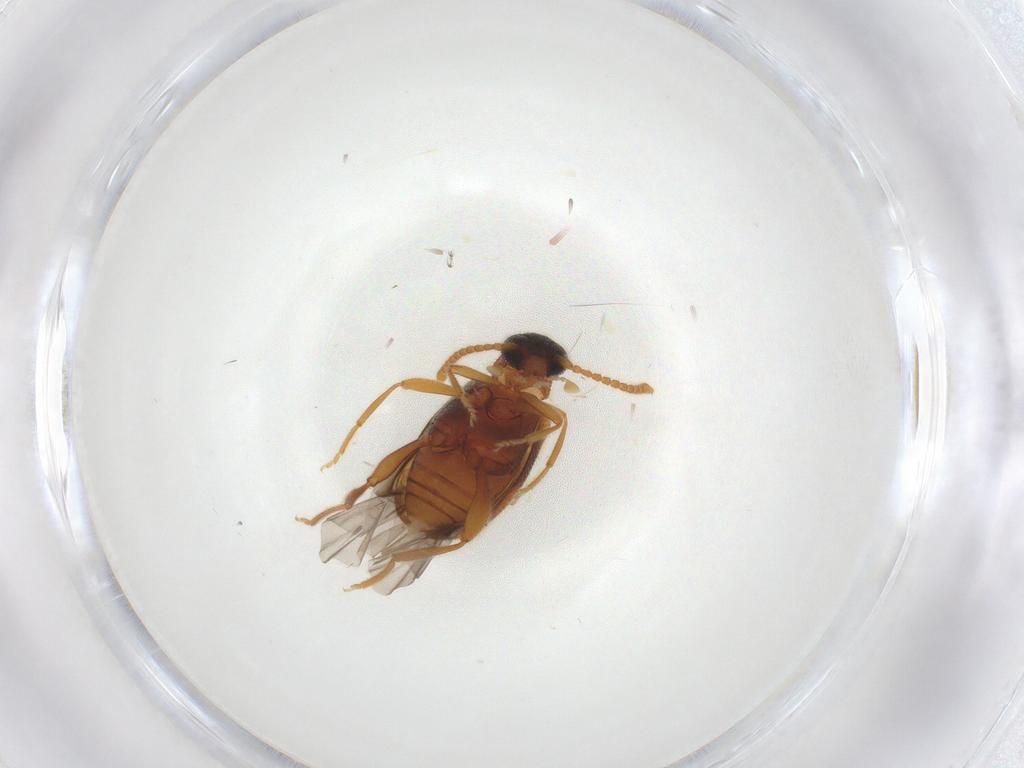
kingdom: Animalia
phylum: Arthropoda
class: Insecta
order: Coleoptera
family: Aderidae
